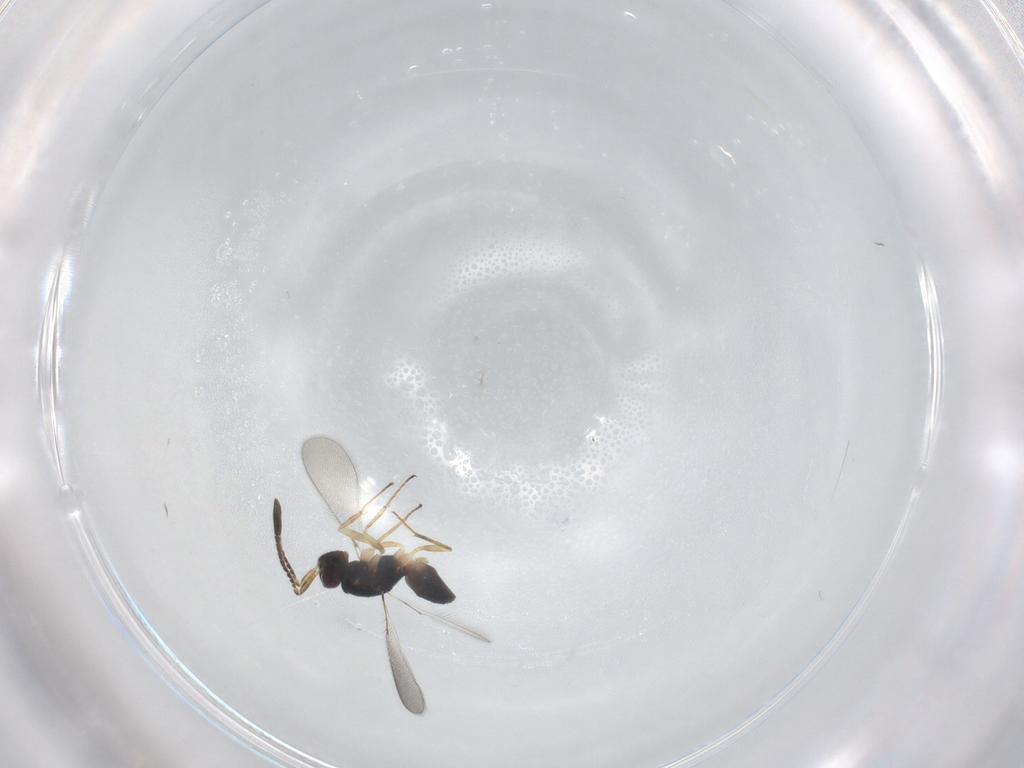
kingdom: Animalia
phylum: Arthropoda
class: Insecta
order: Hymenoptera
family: Mymaridae
